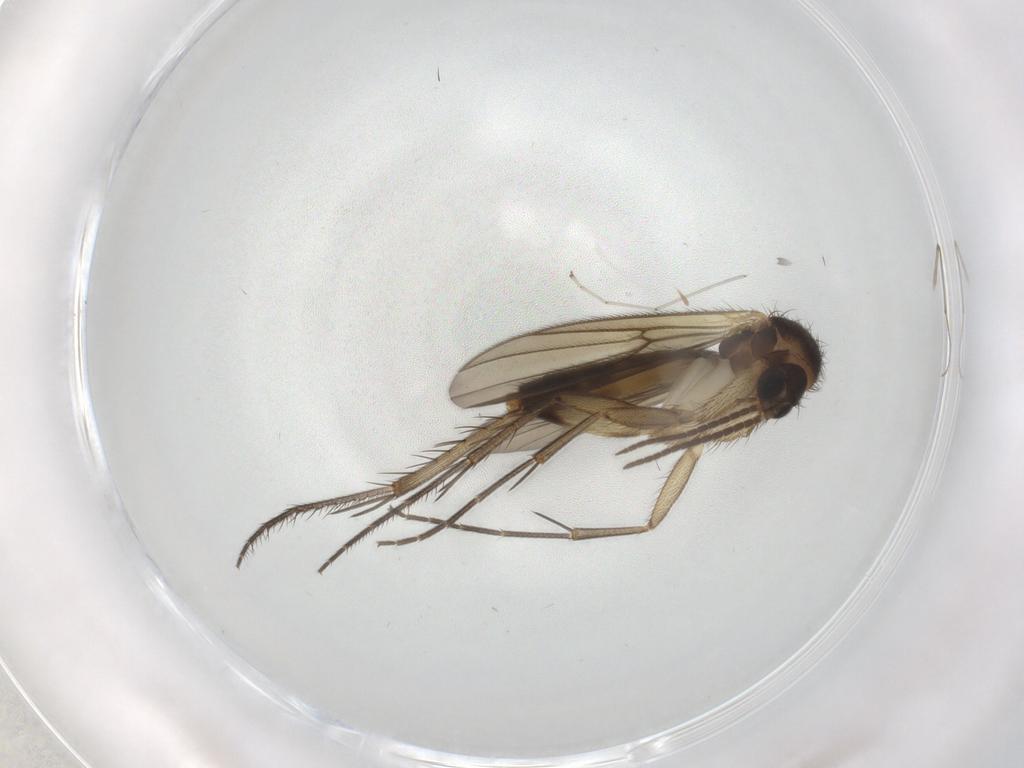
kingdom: Animalia
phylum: Arthropoda
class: Insecta
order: Diptera
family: Mycetophilidae
